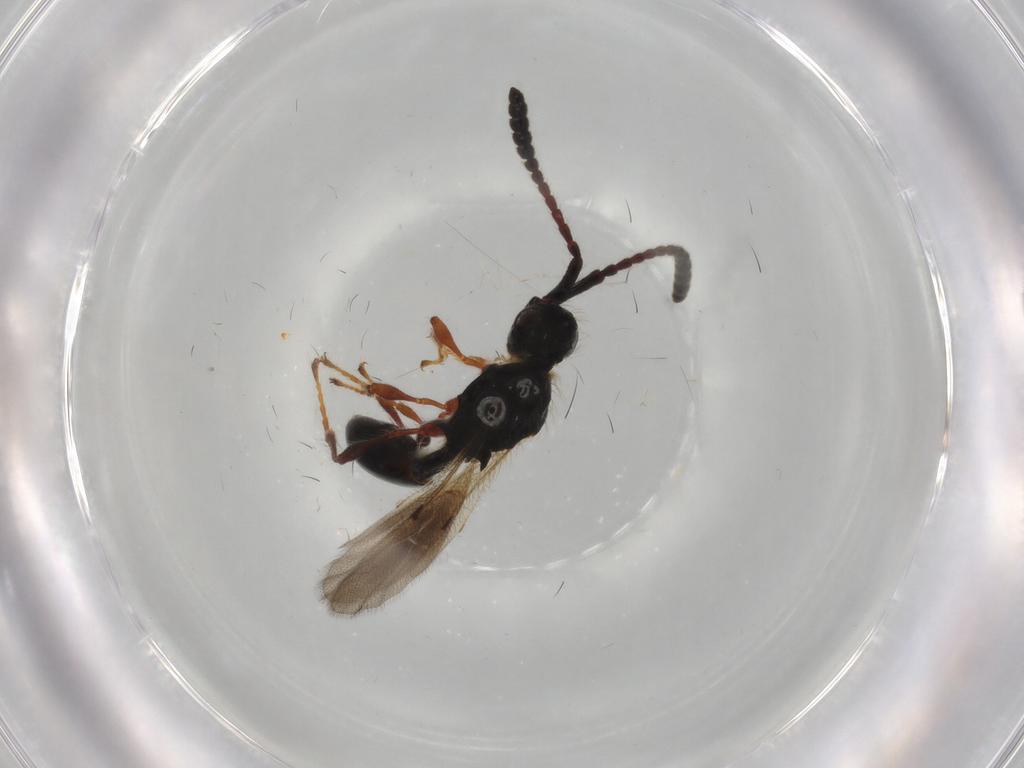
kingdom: Animalia
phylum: Arthropoda
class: Insecta
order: Hymenoptera
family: Diapriidae
